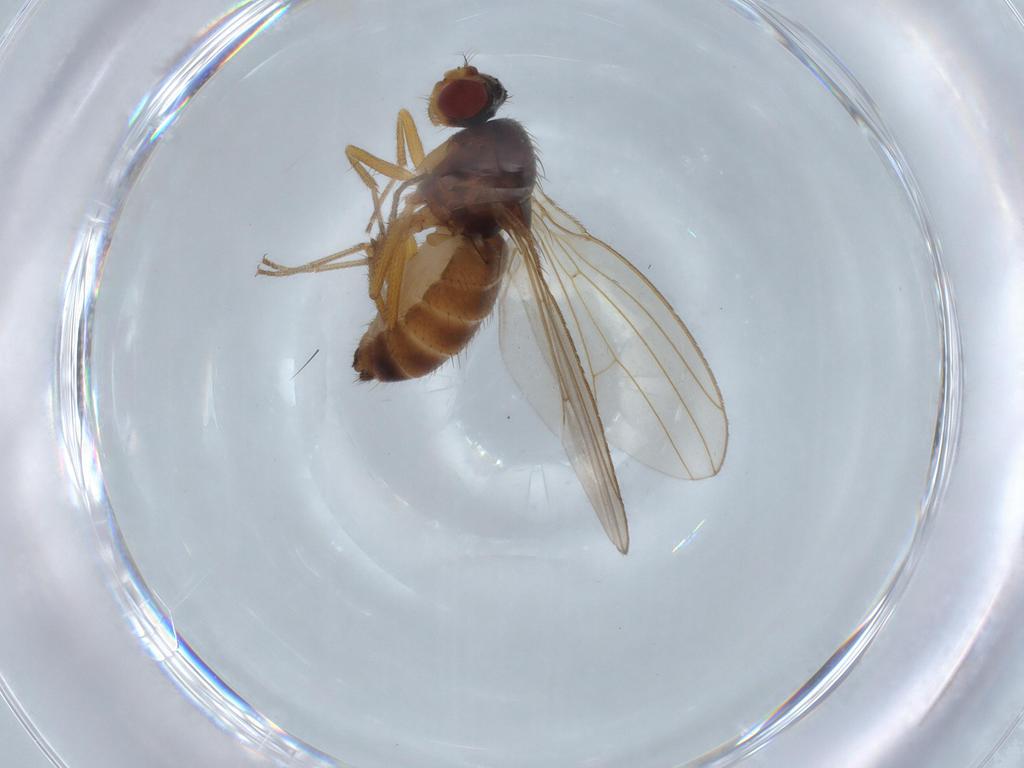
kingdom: Animalia
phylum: Arthropoda
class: Insecta
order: Diptera
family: Drosophilidae
